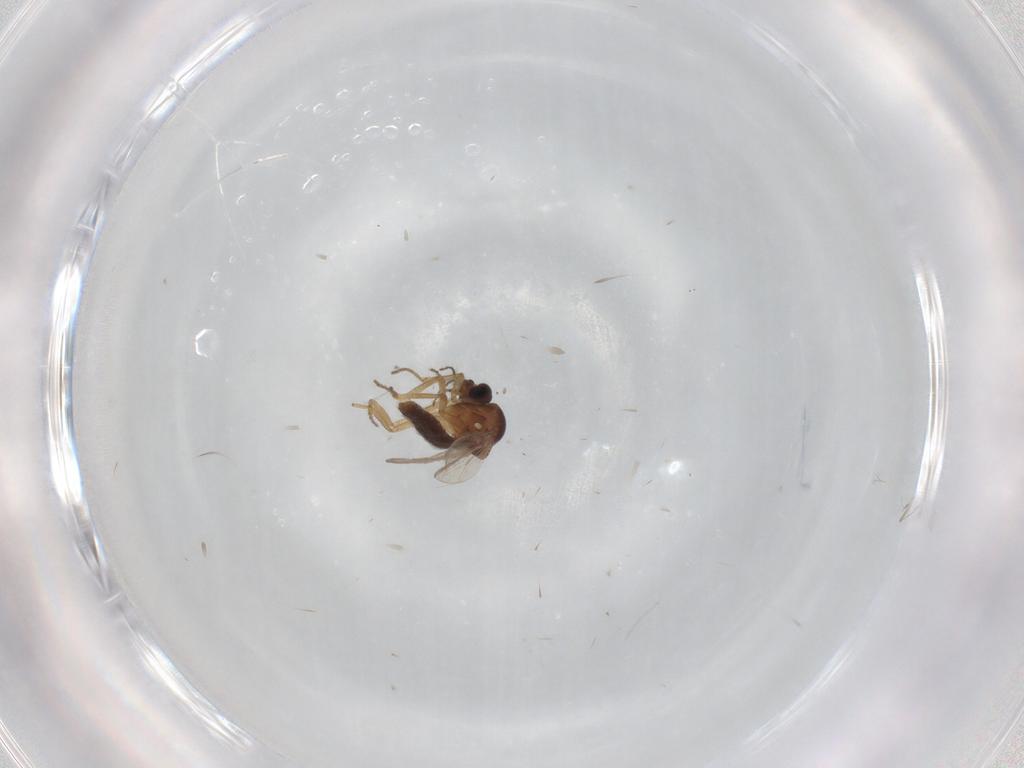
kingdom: Animalia
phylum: Arthropoda
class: Insecta
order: Diptera
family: Ceratopogonidae
